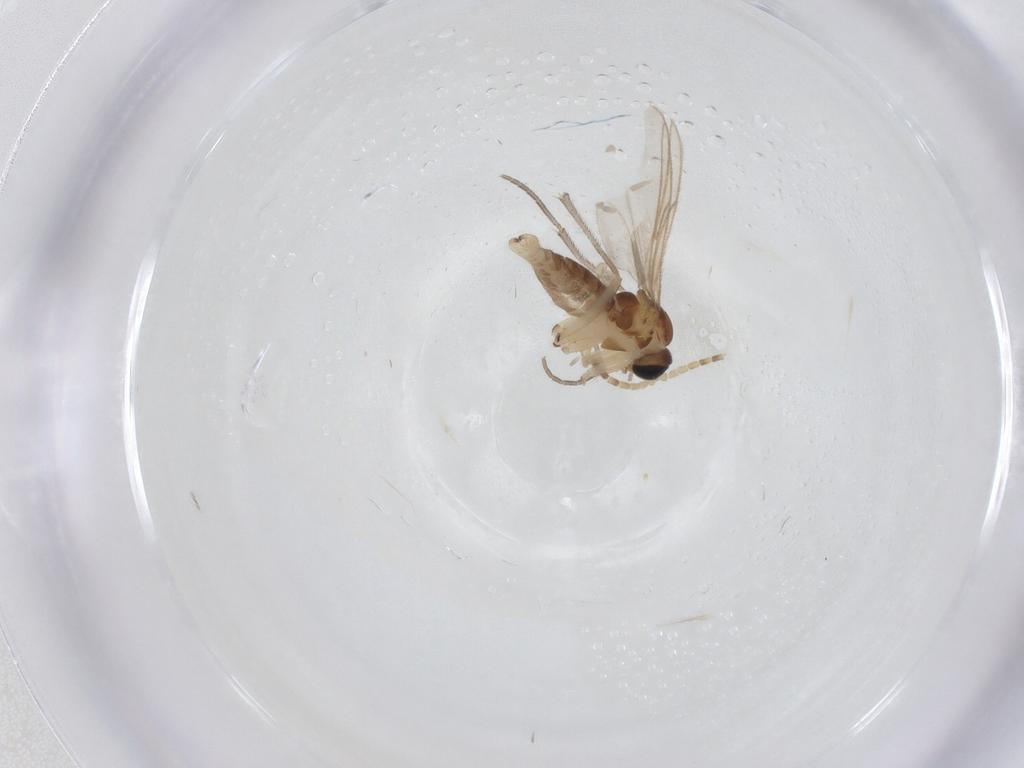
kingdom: Animalia
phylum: Arthropoda
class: Insecta
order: Diptera
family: Sciaridae
